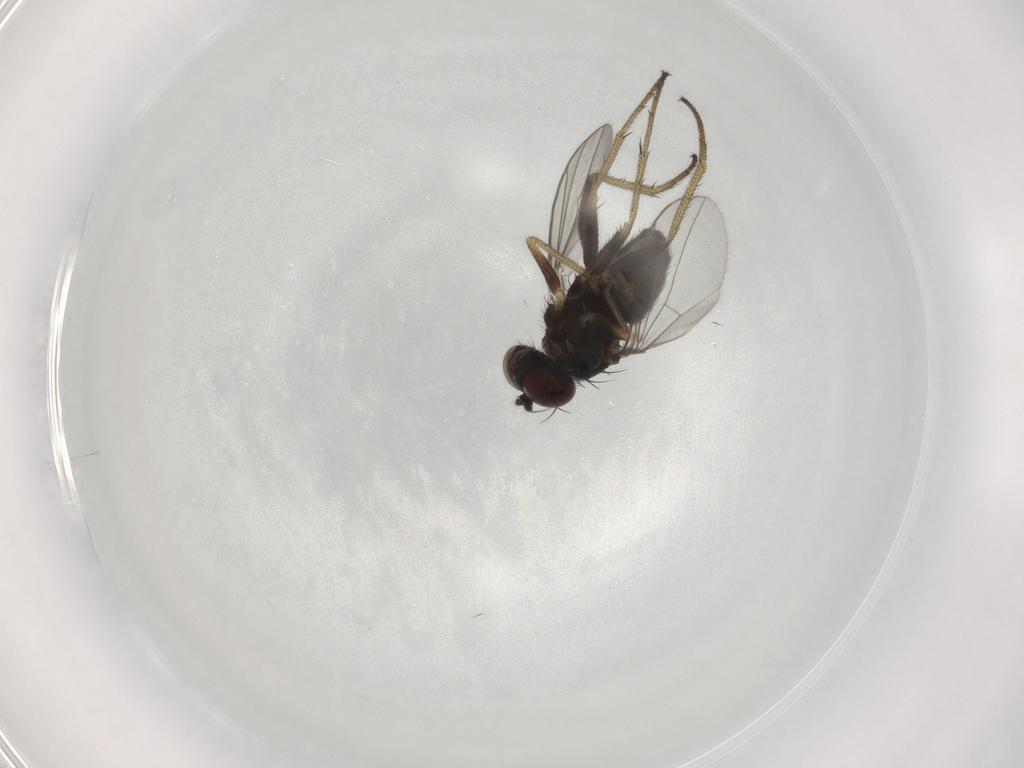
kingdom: Animalia
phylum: Arthropoda
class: Insecta
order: Diptera
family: Dolichopodidae
